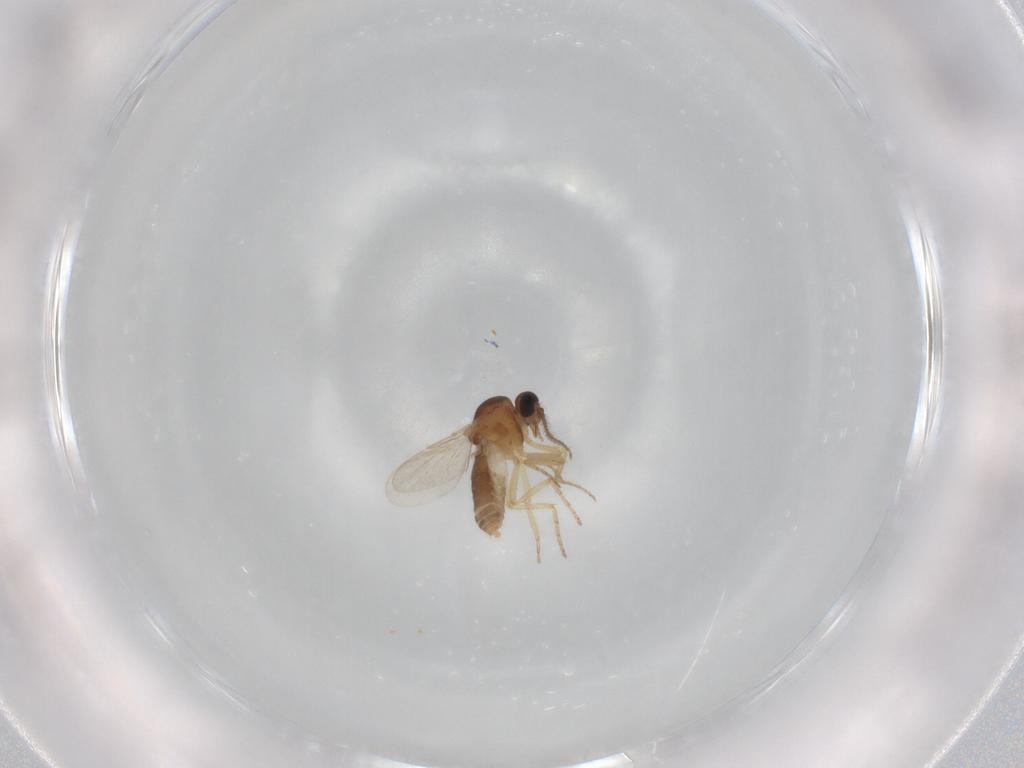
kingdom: Animalia
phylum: Arthropoda
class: Insecta
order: Diptera
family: Ceratopogonidae
